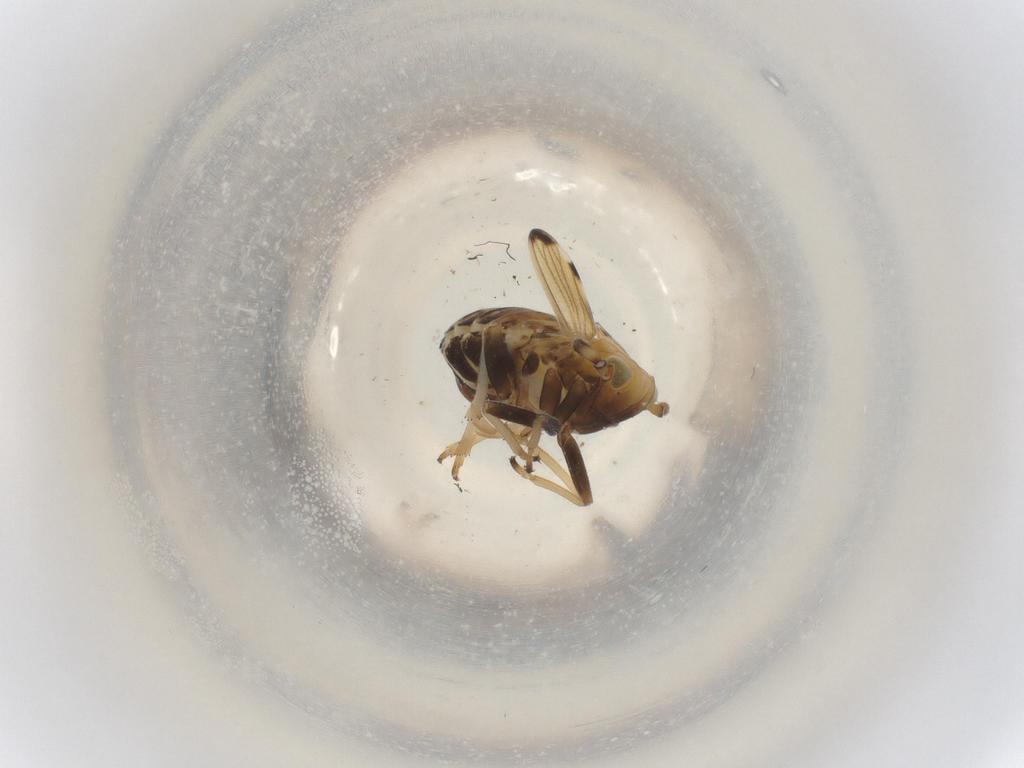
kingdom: Animalia
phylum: Arthropoda
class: Insecta
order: Hemiptera
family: Delphacidae
